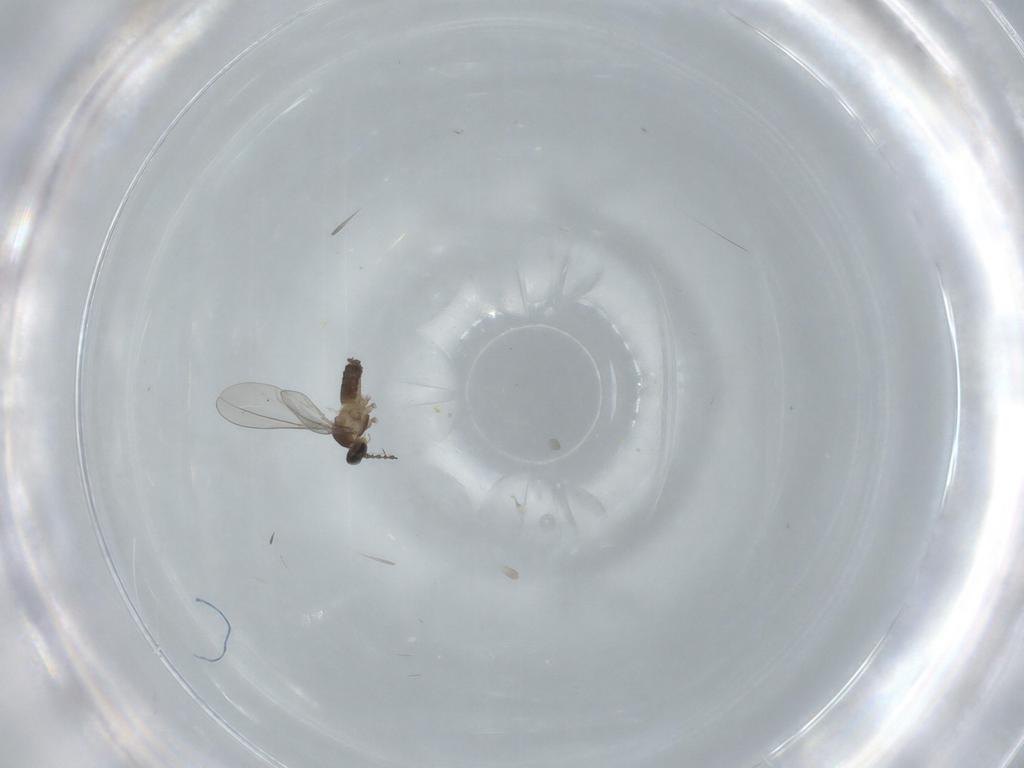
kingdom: Animalia
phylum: Arthropoda
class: Insecta
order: Diptera
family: Cecidomyiidae
